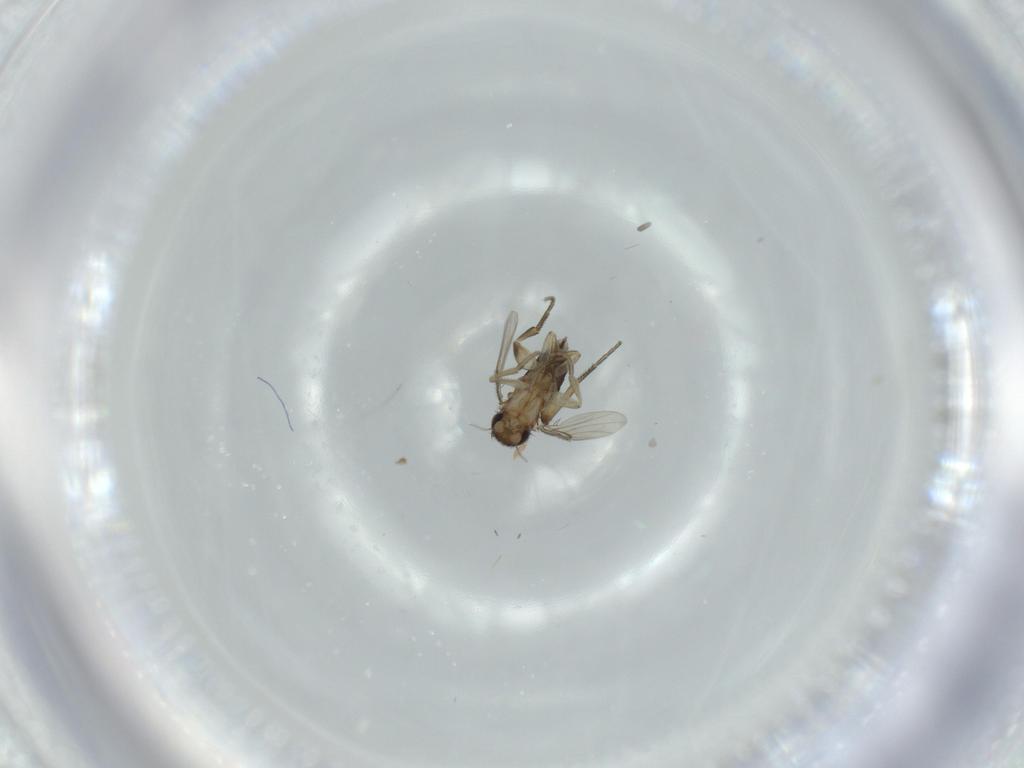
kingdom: Animalia
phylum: Arthropoda
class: Insecta
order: Diptera
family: Phoridae
